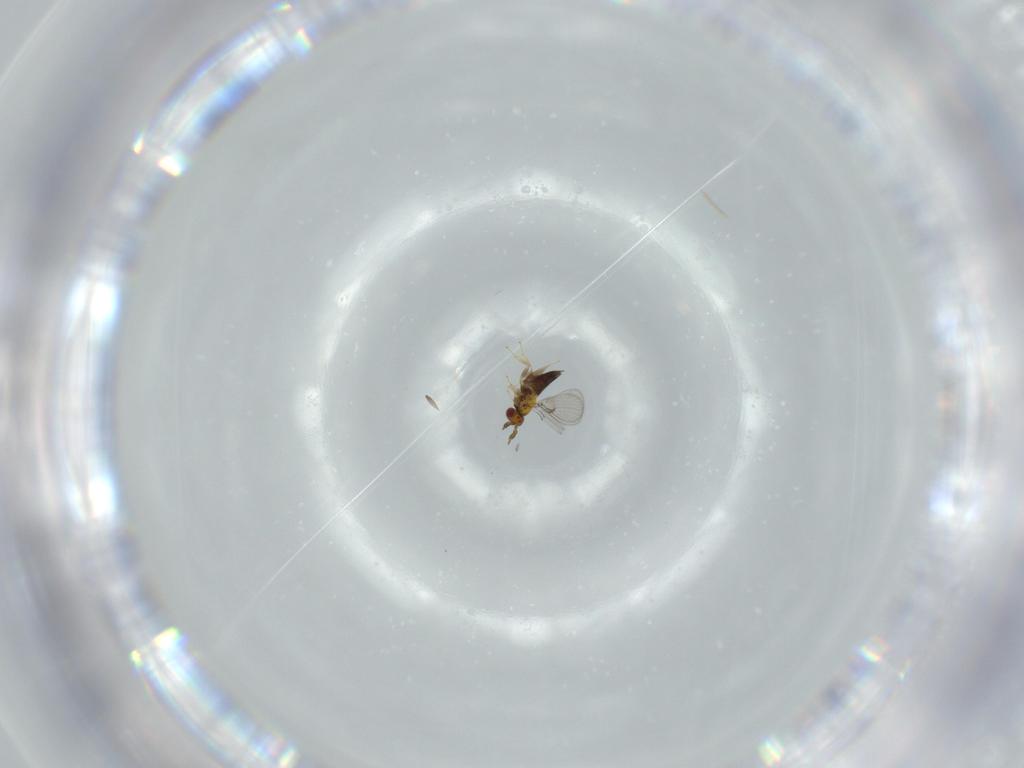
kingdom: Animalia
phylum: Arthropoda
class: Insecta
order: Hymenoptera
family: Trichogrammatidae
